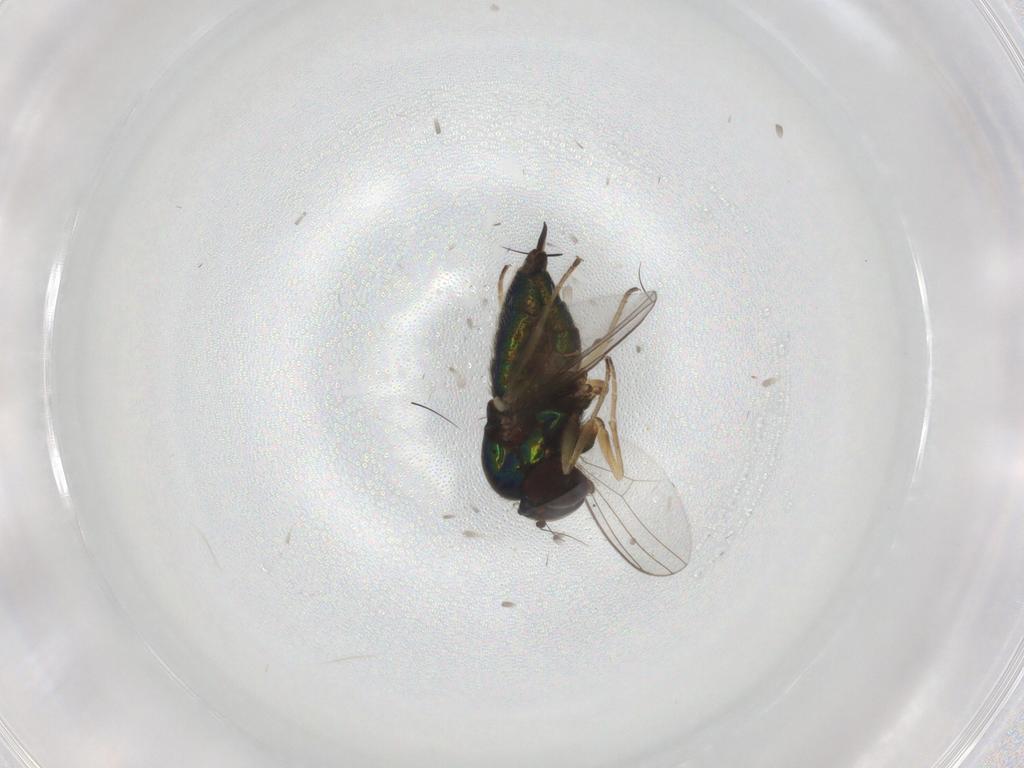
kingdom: Animalia
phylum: Arthropoda
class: Insecta
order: Diptera
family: Dolichopodidae
